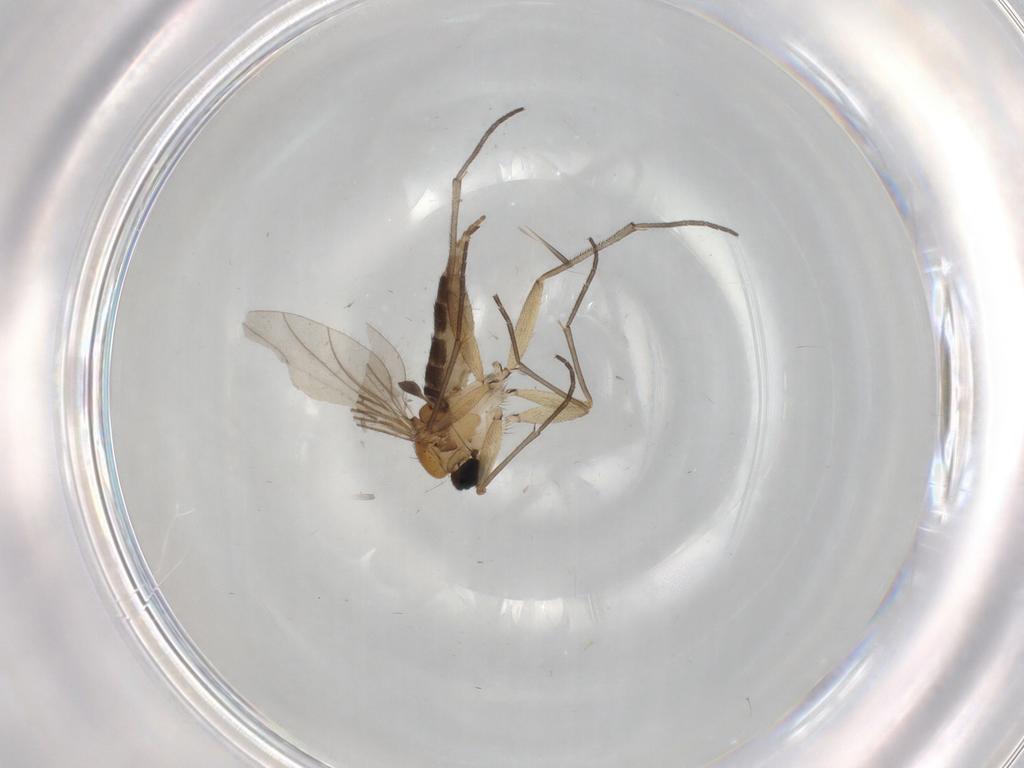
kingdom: Animalia
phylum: Arthropoda
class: Insecta
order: Diptera
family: Sciaridae
